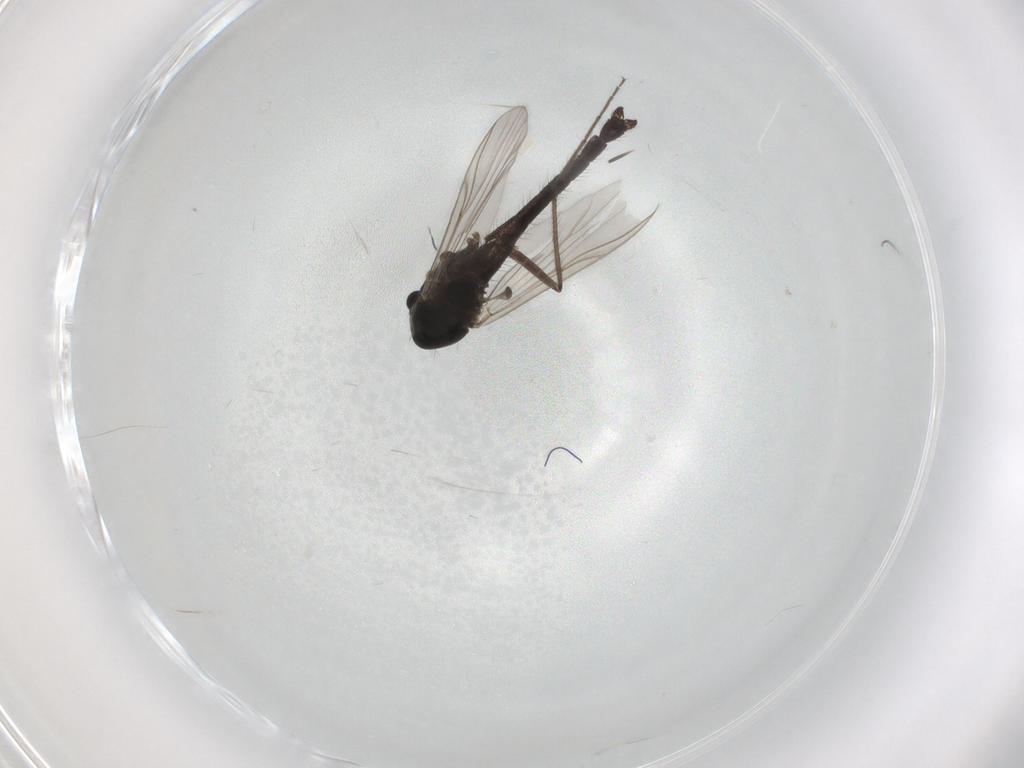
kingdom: Animalia
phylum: Arthropoda
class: Insecta
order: Diptera
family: Chironomidae
